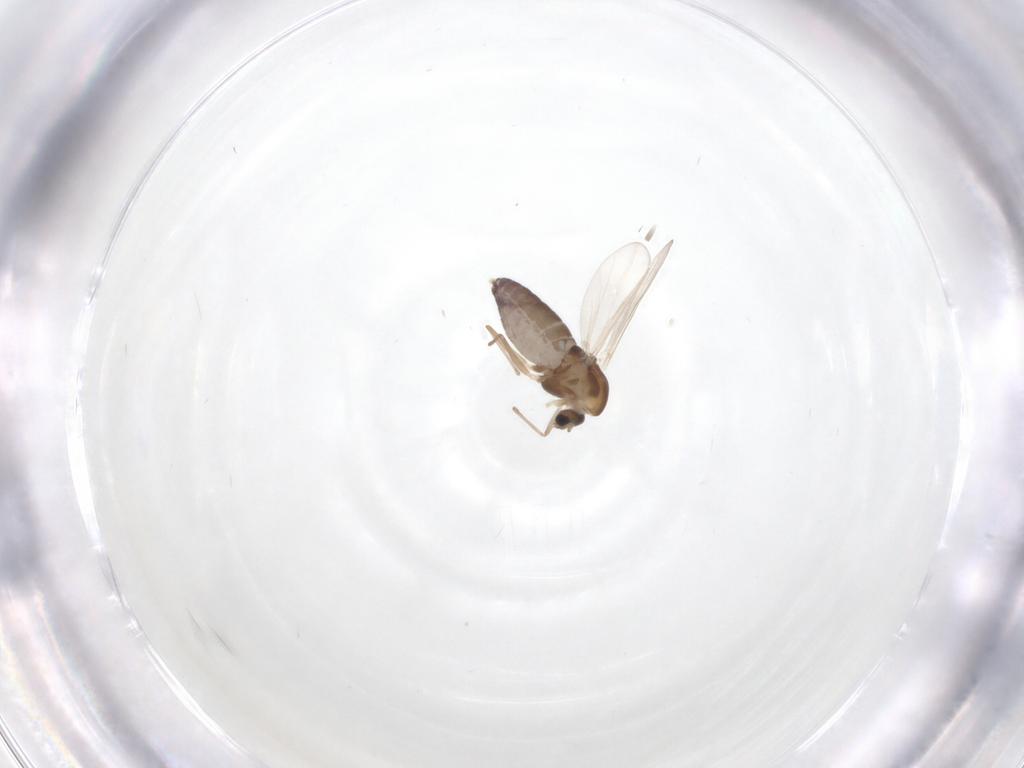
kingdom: Animalia
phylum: Arthropoda
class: Insecta
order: Diptera
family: Chironomidae
